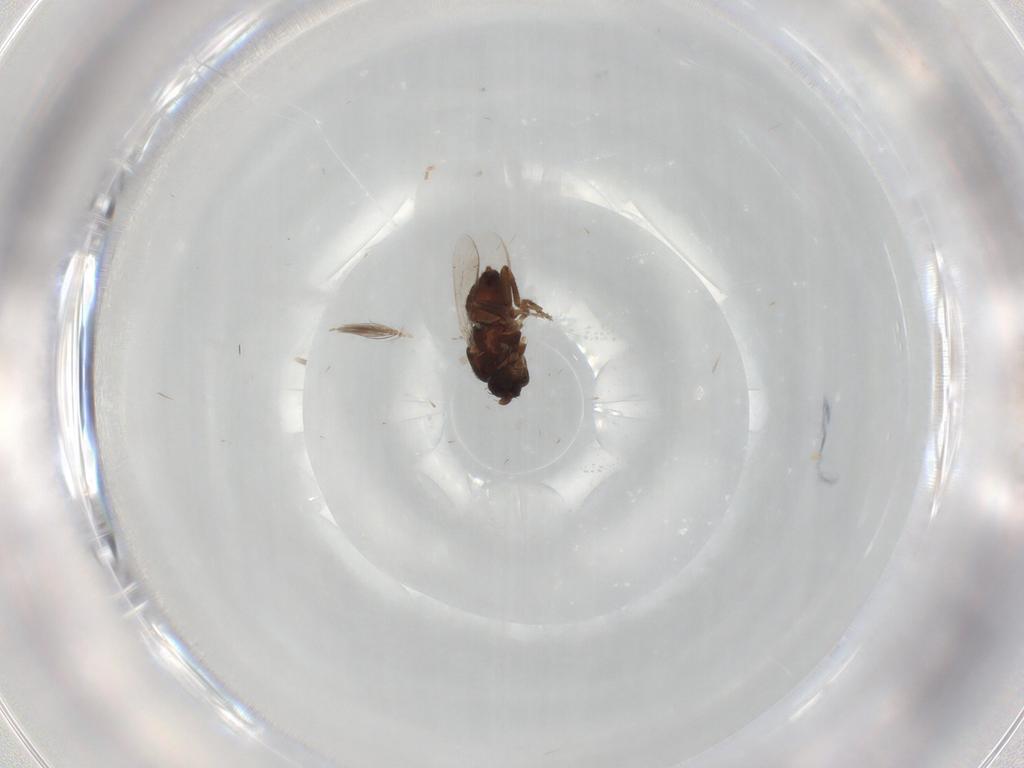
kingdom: Animalia
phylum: Arthropoda
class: Insecta
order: Diptera
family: Ceratopogonidae
